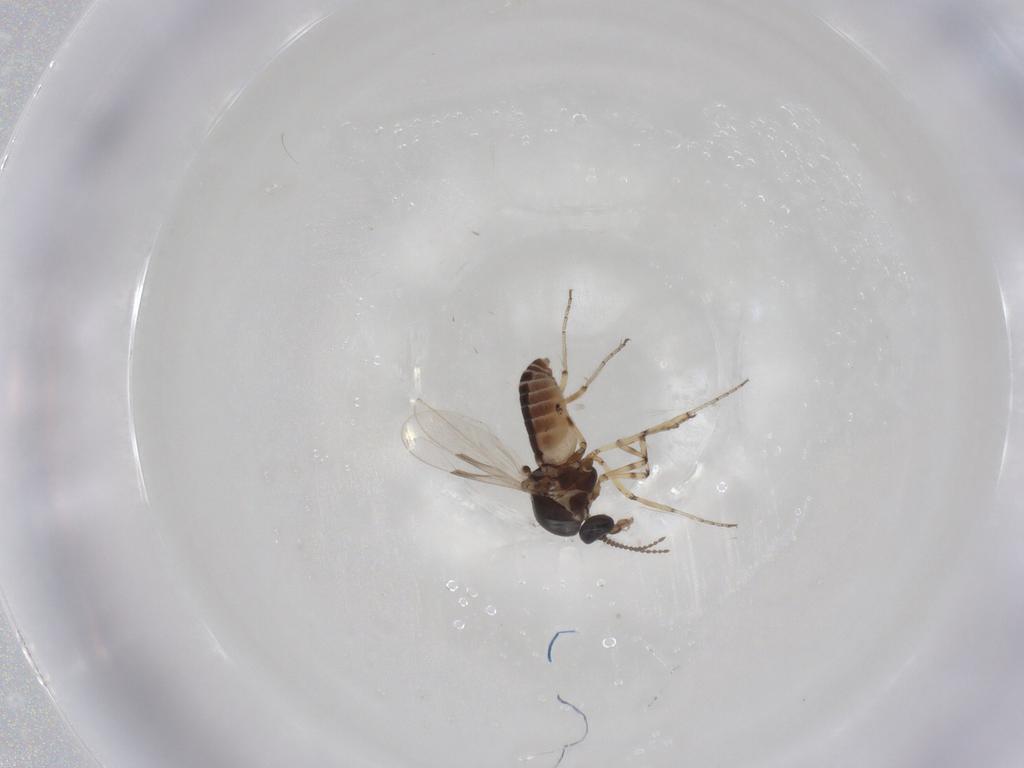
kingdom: Animalia
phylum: Arthropoda
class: Insecta
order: Diptera
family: Ceratopogonidae
